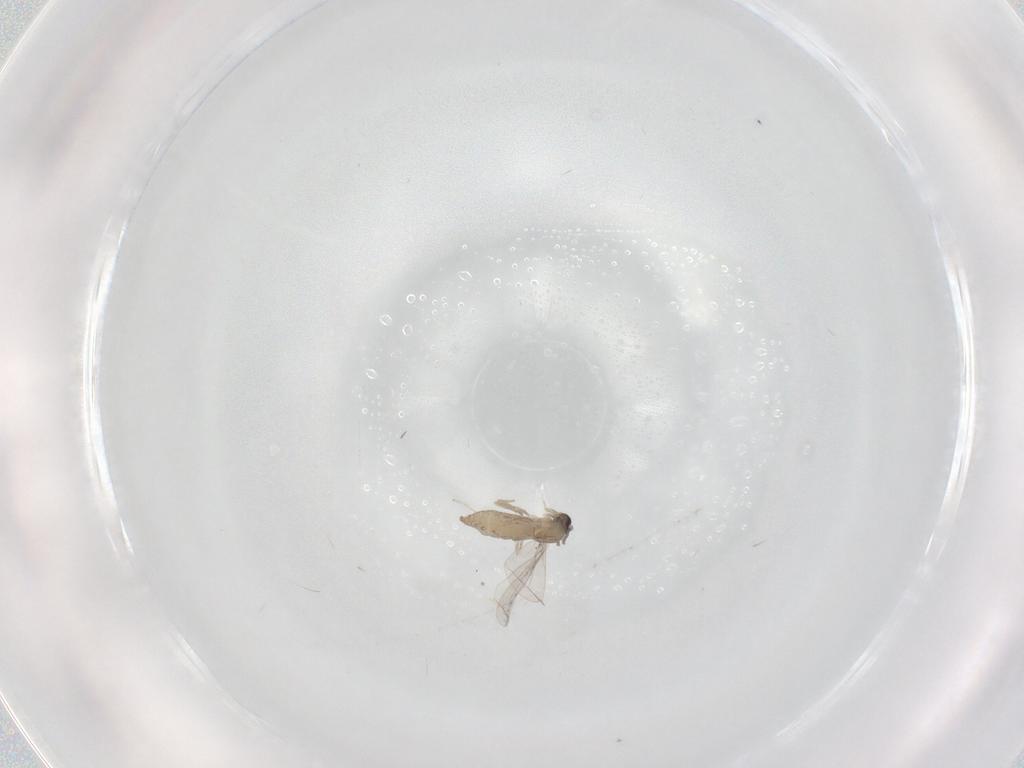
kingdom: Animalia
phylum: Arthropoda
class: Insecta
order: Diptera
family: Cecidomyiidae
